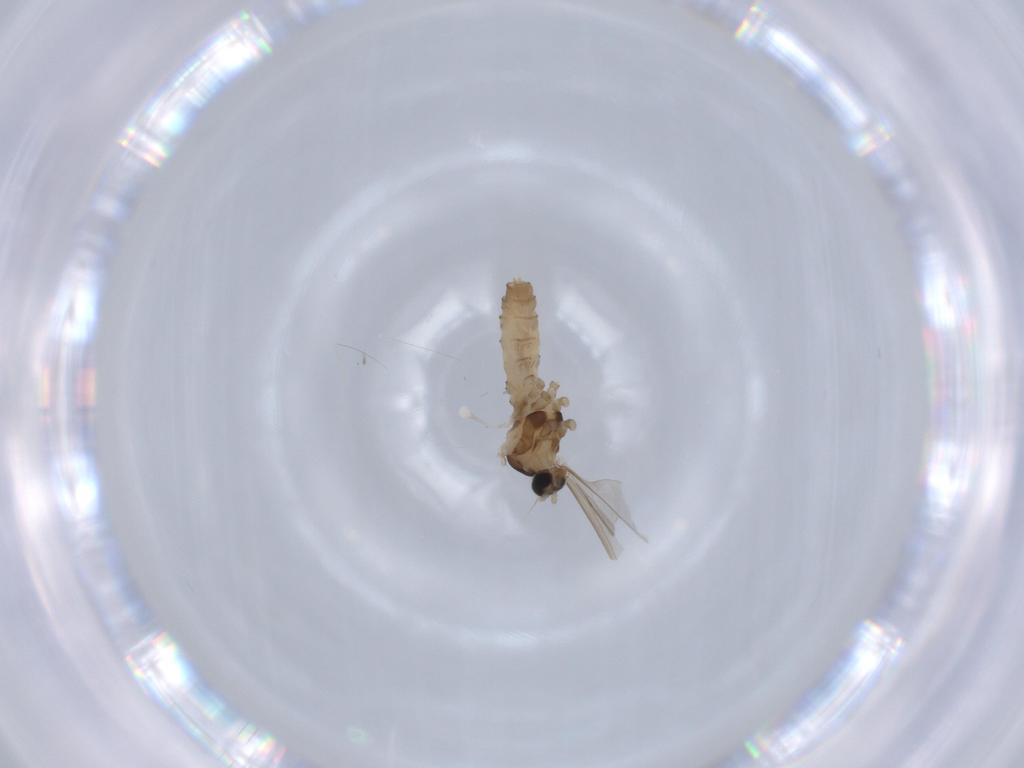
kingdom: Animalia
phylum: Arthropoda
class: Insecta
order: Diptera
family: Cecidomyiidae
